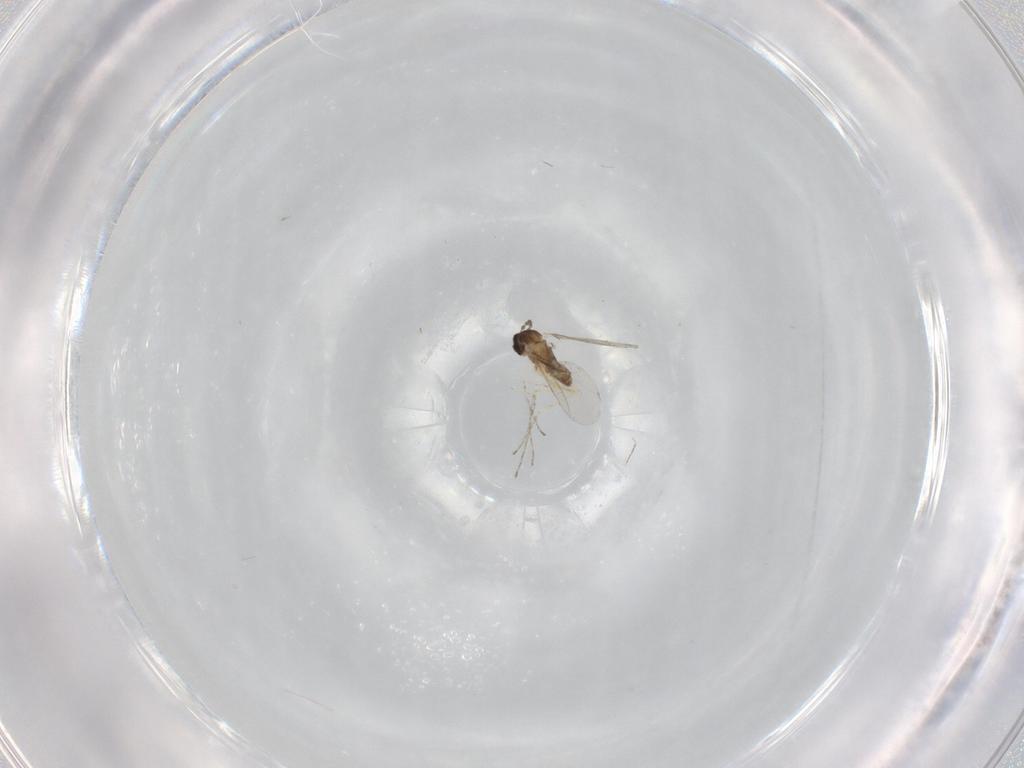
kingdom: Animalia
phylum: Arthropoda
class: Insecta
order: Diptera
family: Cecidomyiidae
